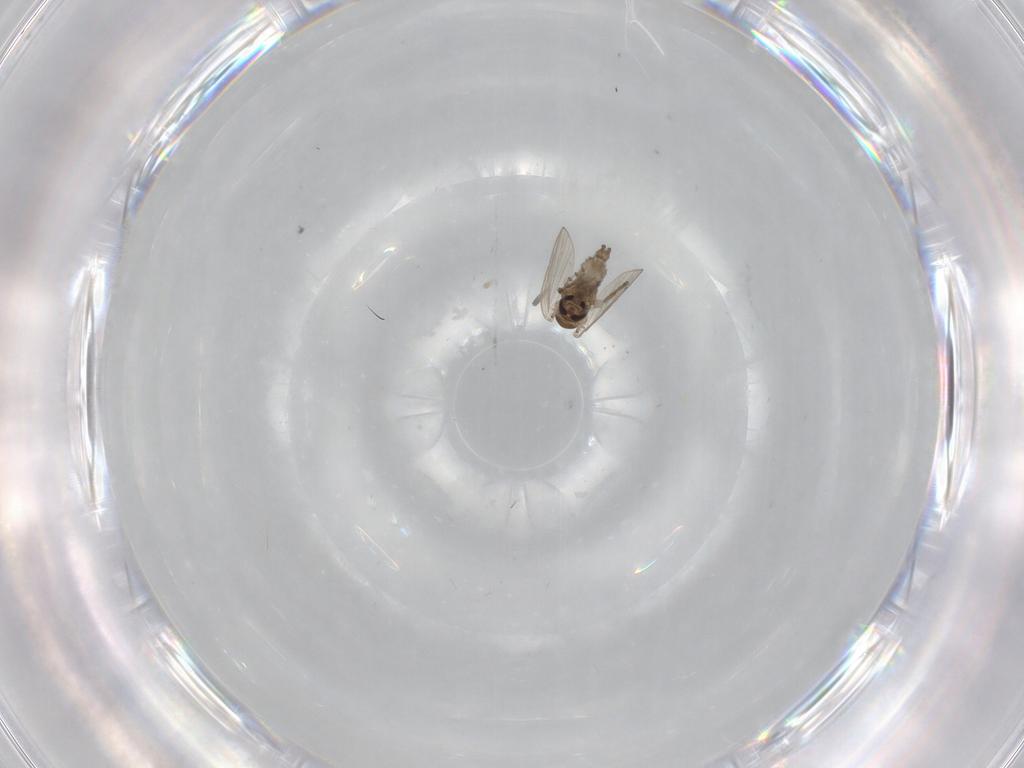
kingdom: Animalia
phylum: Arthropoda
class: Insecta
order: Diptera
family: Psychodidae
